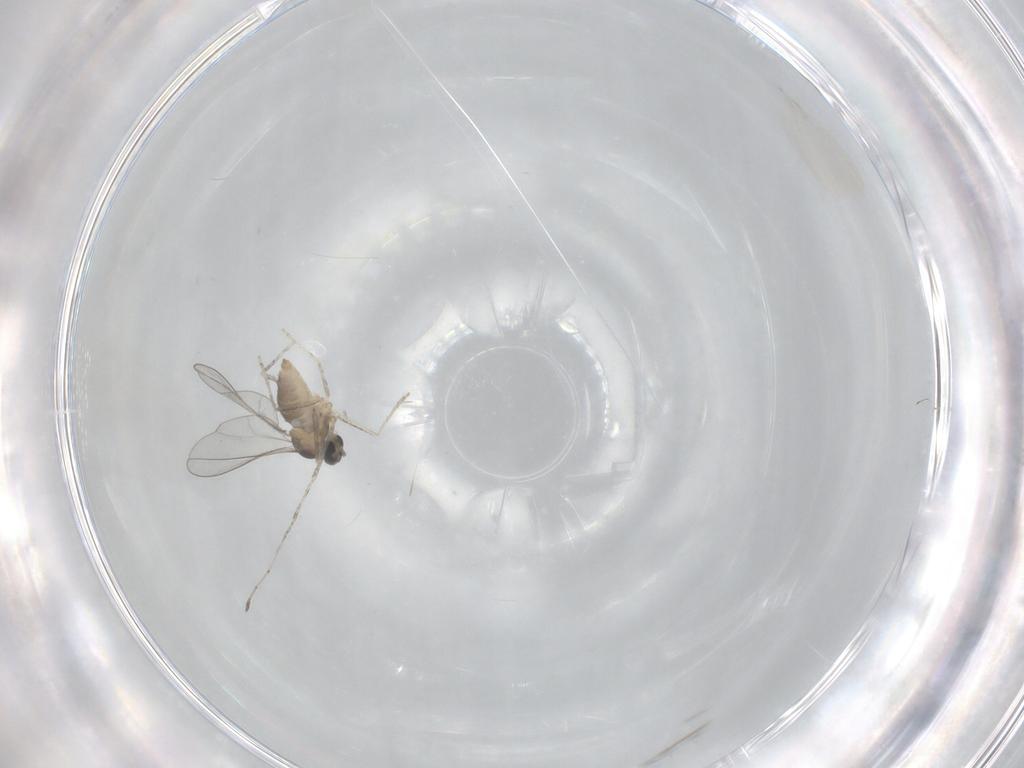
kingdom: Animalia
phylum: Arthropoda
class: Insecta
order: Diptera
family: Cecidomyiidae
